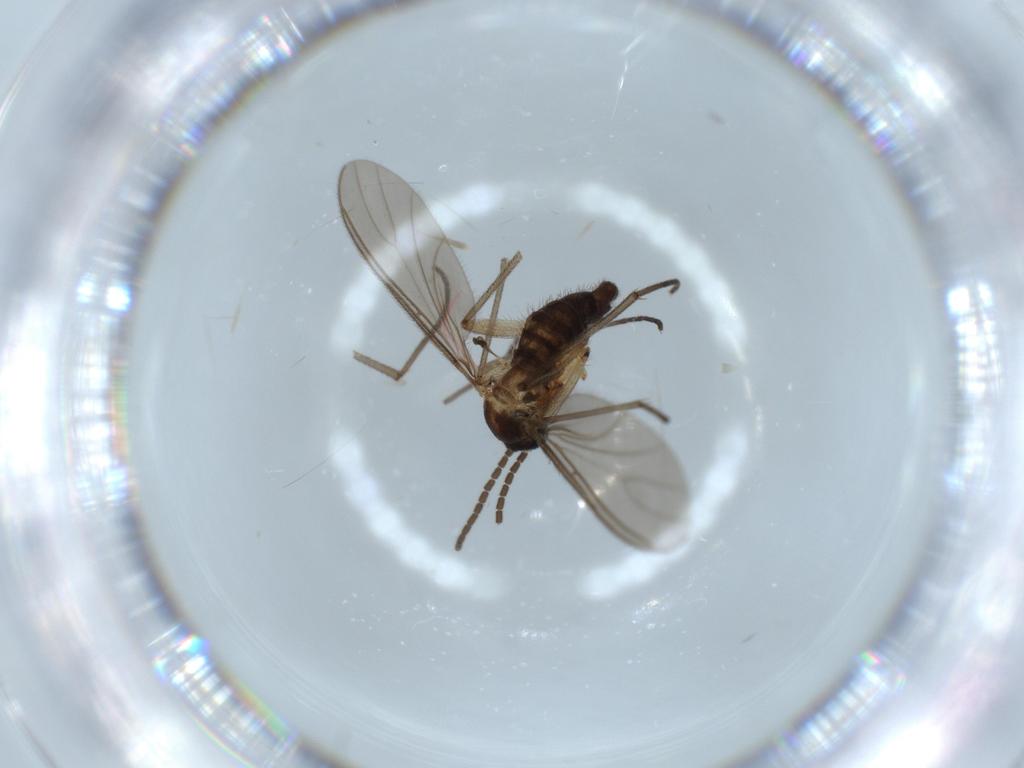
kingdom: Animalia
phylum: Arthropoda
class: Insecta
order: Diptera
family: Sciaridae
